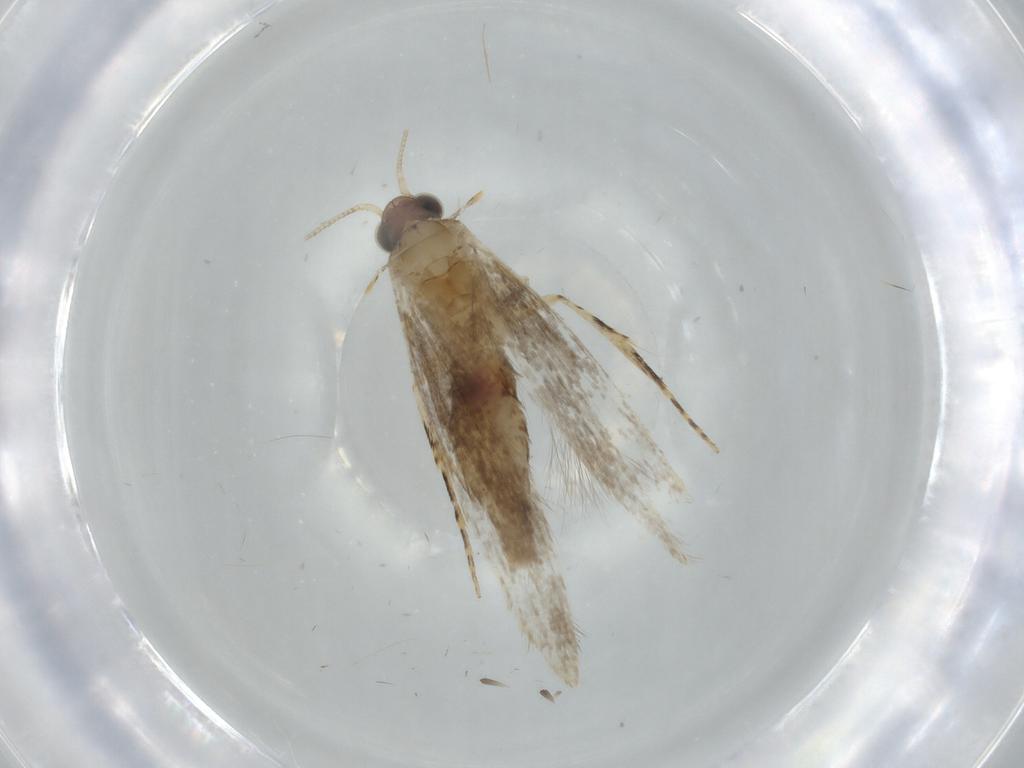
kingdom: Animalia
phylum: Arthropoda
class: Insecta
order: Lepidoptera
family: Tineidae
